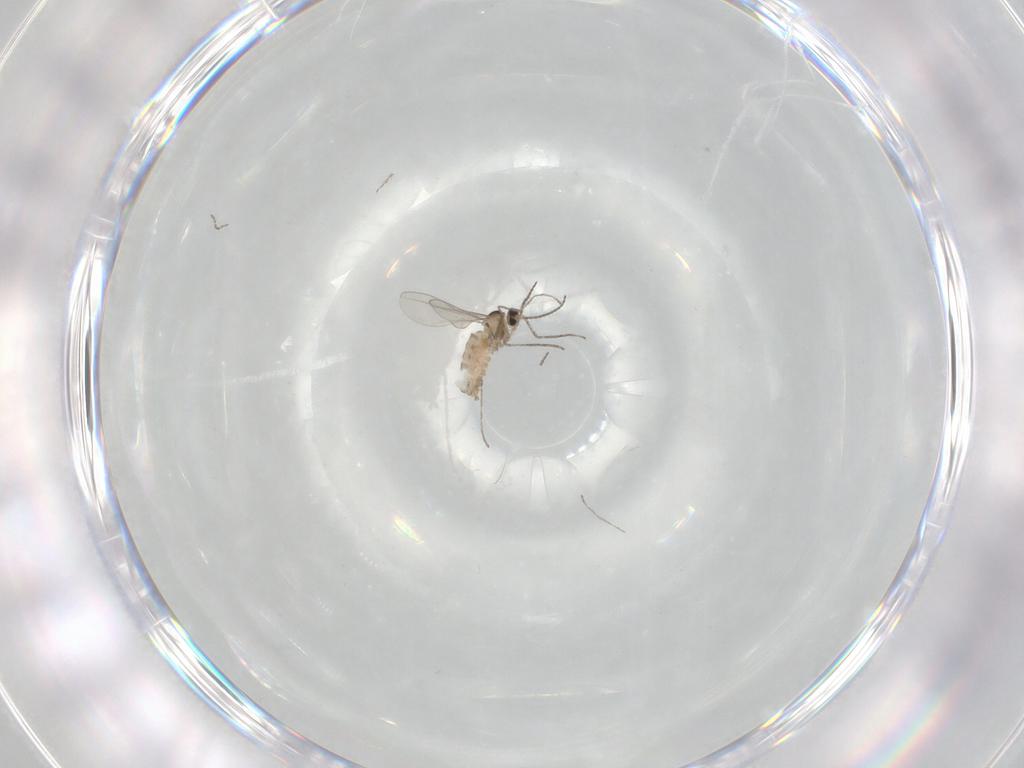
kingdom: Animalia
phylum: Arthropoda
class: Insecta
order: Diptera
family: Cecidomyiidae
